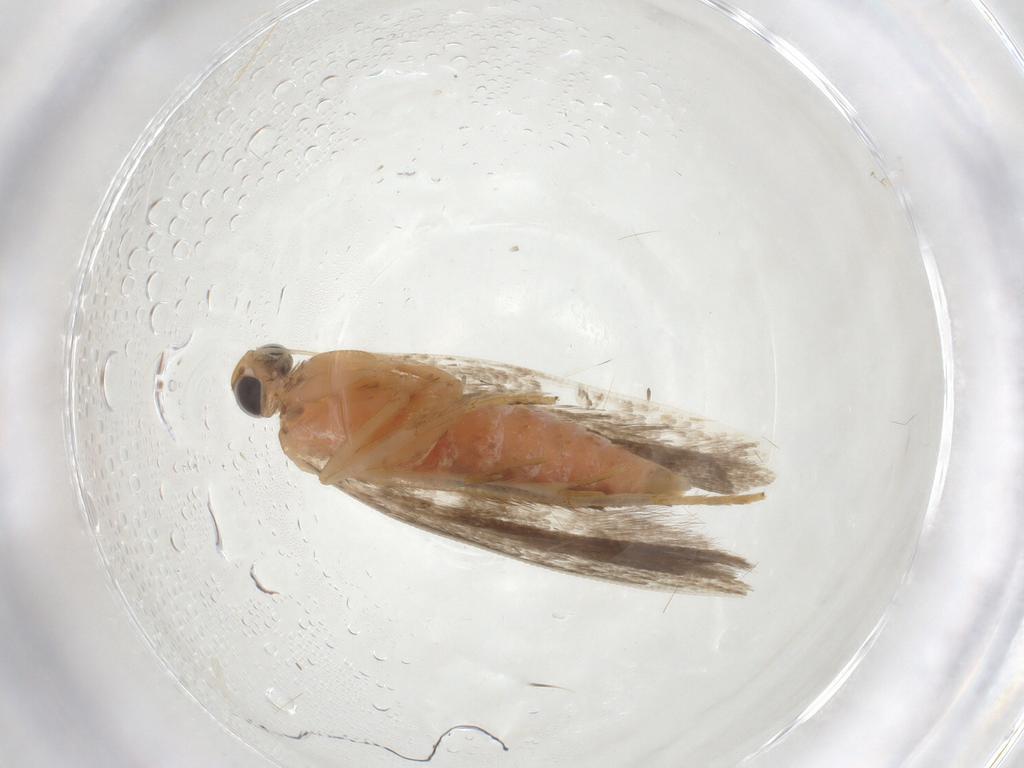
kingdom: Animalia
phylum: Arthropoda
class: Insecta
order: Lepidoptera
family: Gelechiidae
